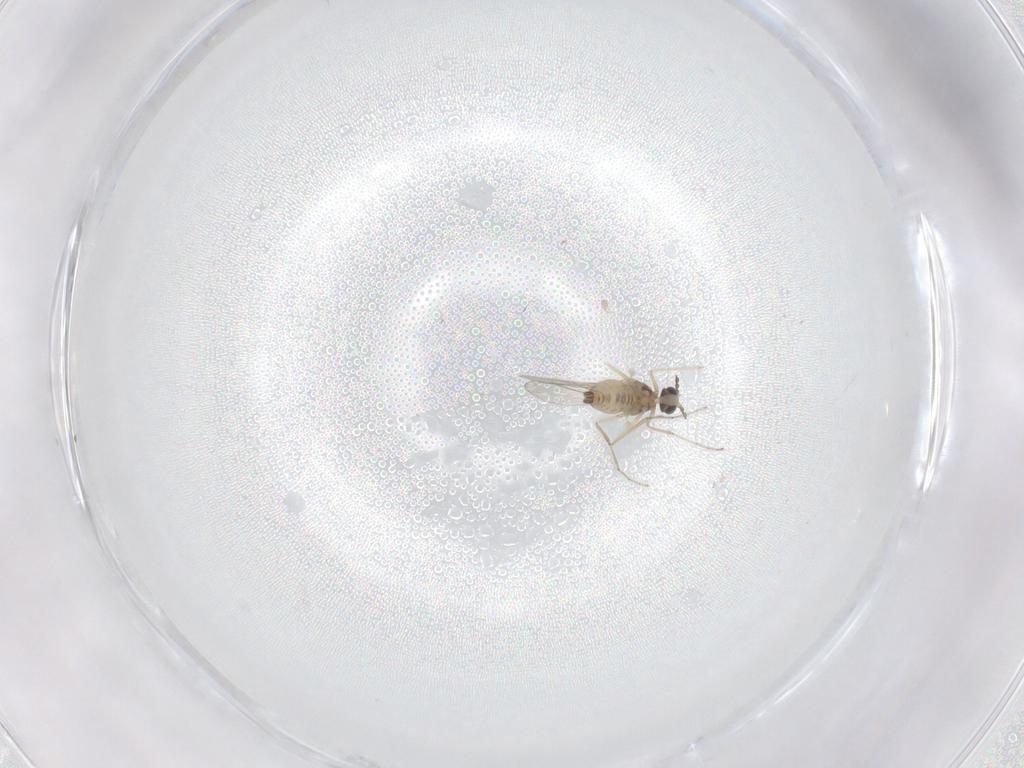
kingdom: Animalia
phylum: Arthropoda
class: Insecta
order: Diptera
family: Cecidomyiidae
